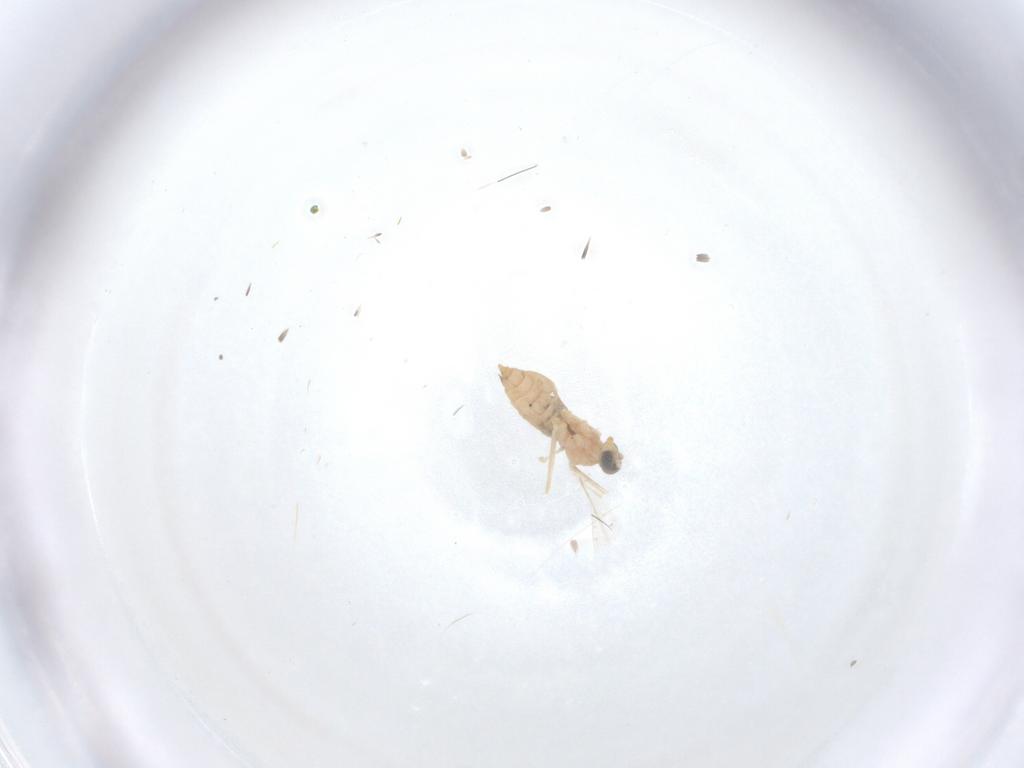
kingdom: Animalia
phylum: Arthropoda
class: Insecta
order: Diptera
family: Cecidomyiidae
